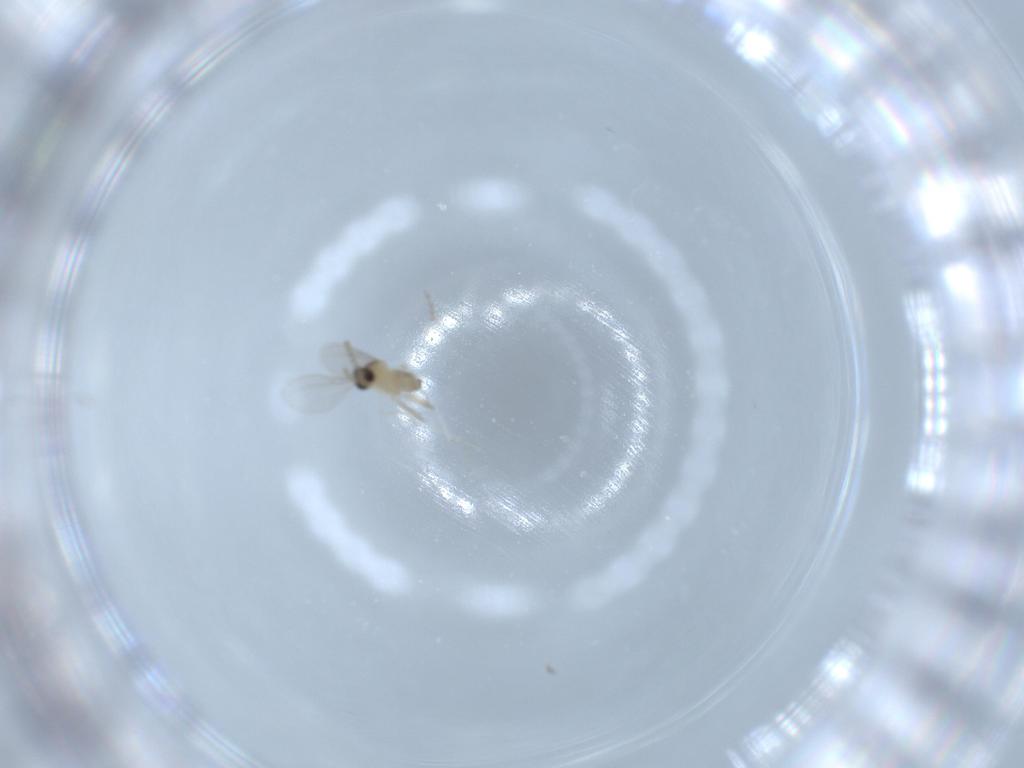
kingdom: Animalia
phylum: Arthropoda
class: Insecta
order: Diptera
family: Cecidomyiidae
